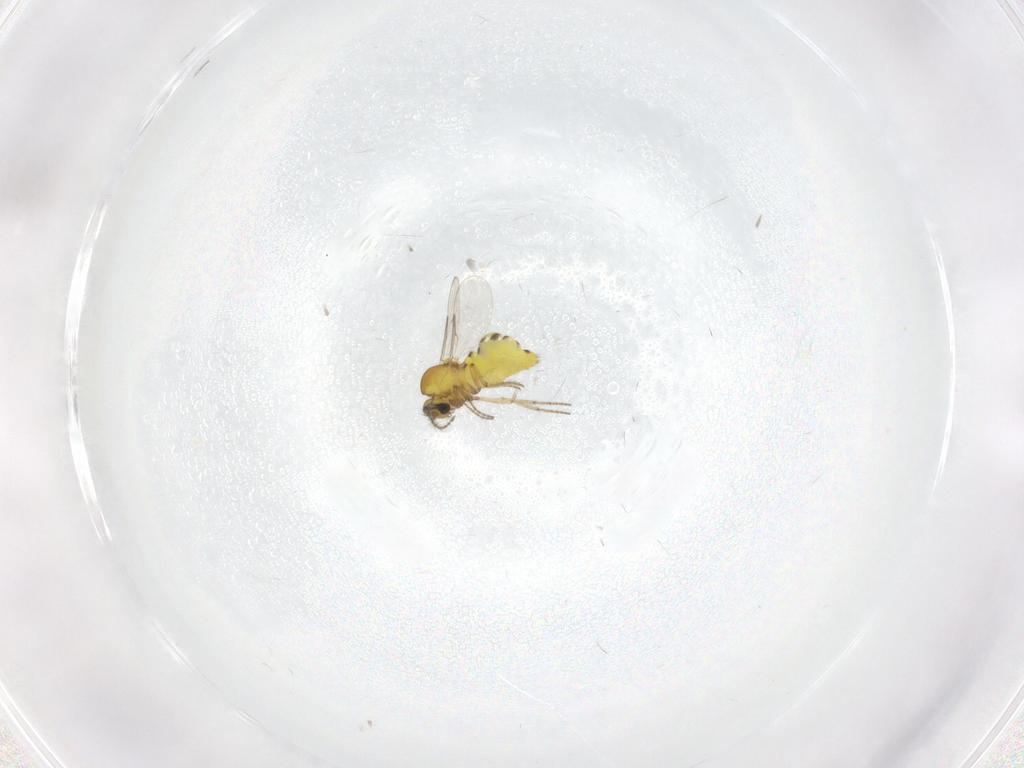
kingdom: Animalia
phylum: Arthropoda
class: Insecta
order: Diptera
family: Ceratopogonidae
